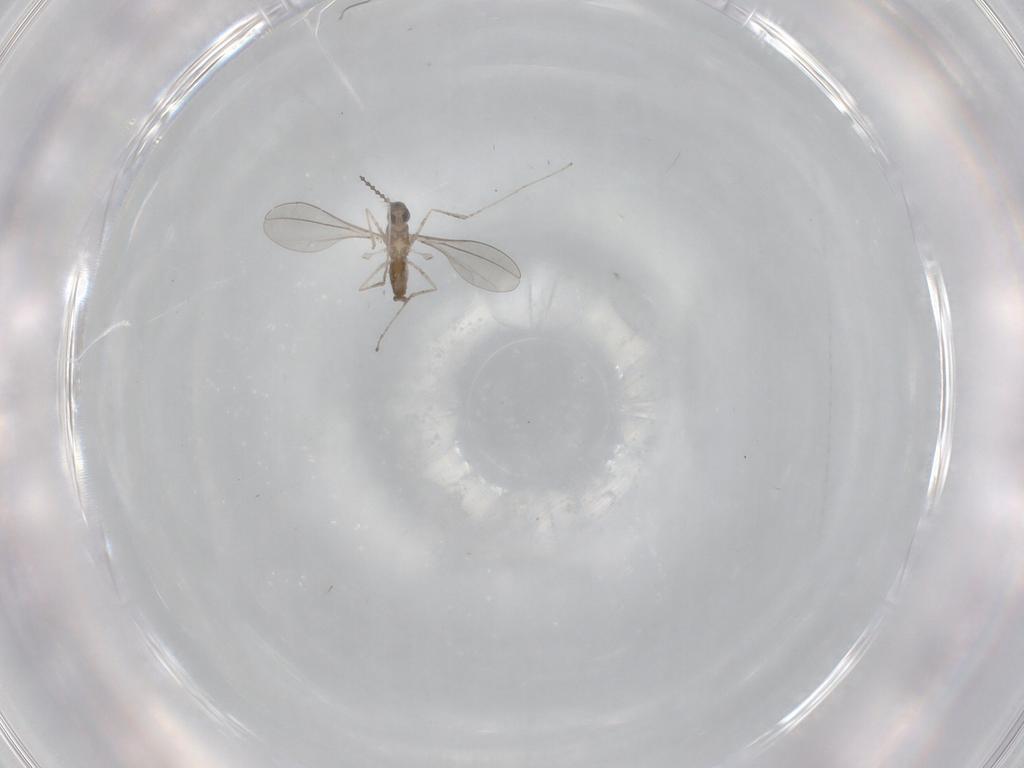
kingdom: Animalia
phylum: Arthropoda
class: Insecta
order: Diptera
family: Cecidomyiidae
